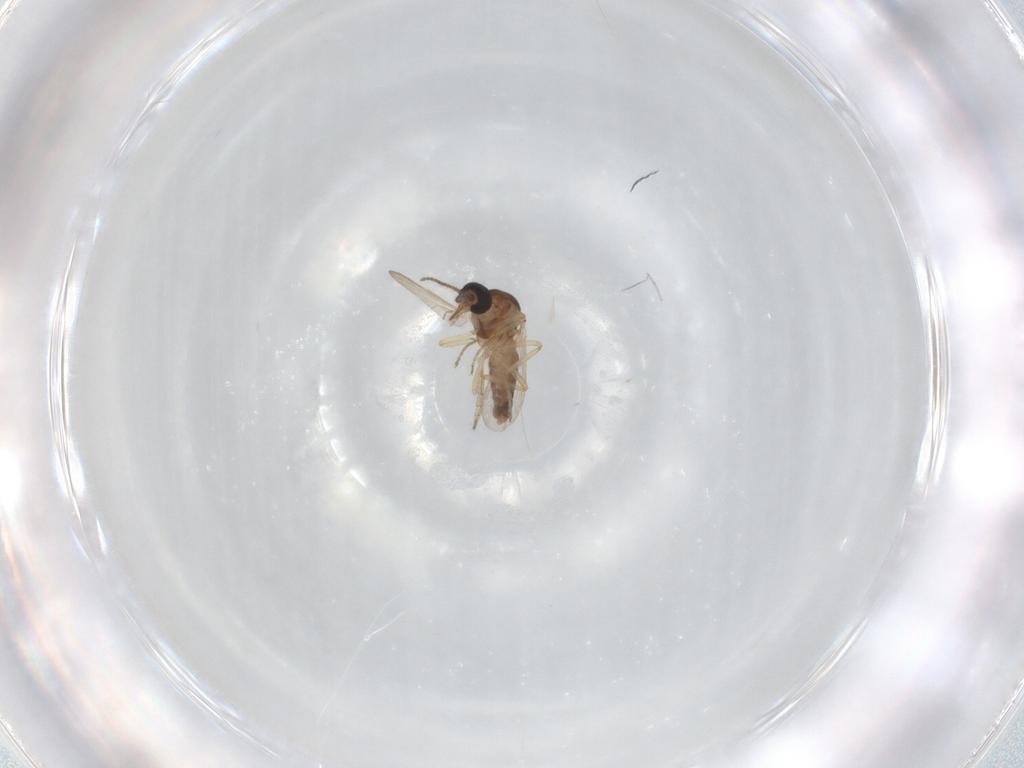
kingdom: Animalia
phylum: Arthropoda
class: Insecta
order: Diptera
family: Ceratopogonidae
